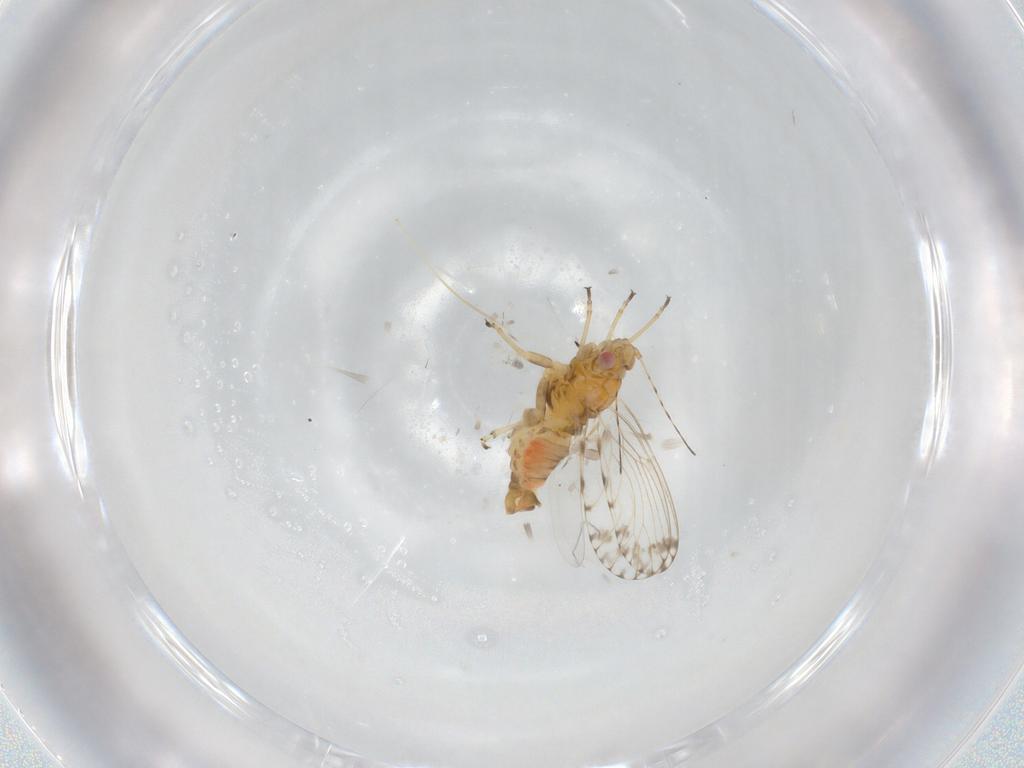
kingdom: Animalia
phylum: Arthropoda
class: Insecta
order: Hemiptera
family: Psyllidae
